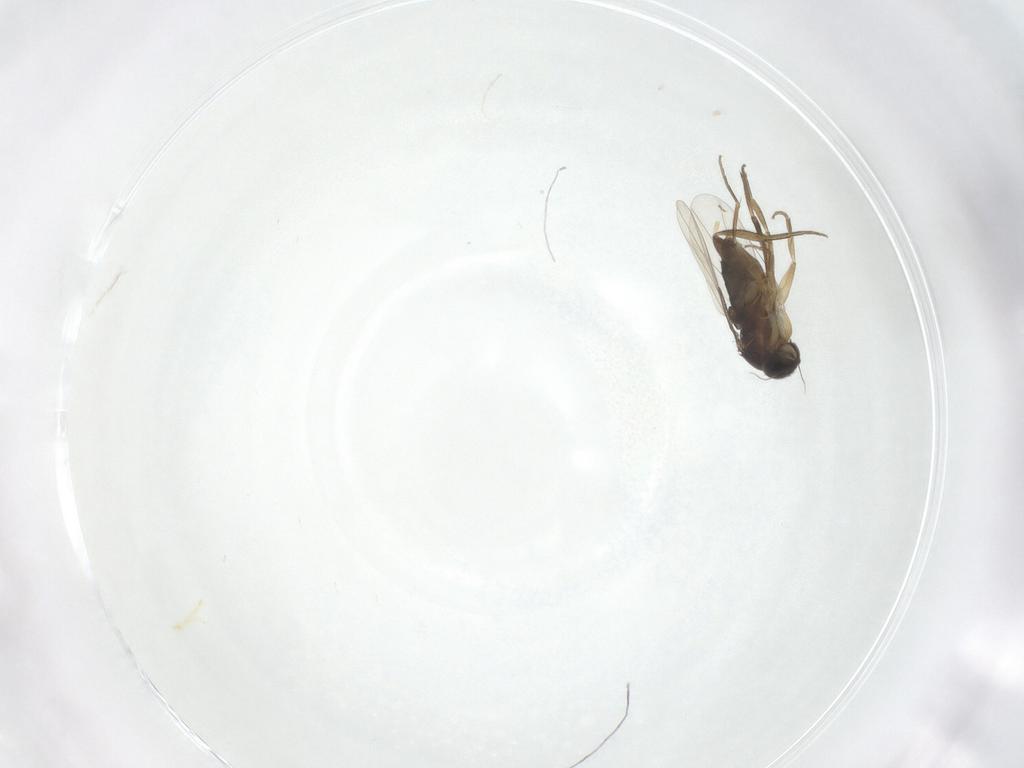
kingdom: Animalia
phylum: Arthropoda
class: Insecta
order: Diptera
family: Phoridae
